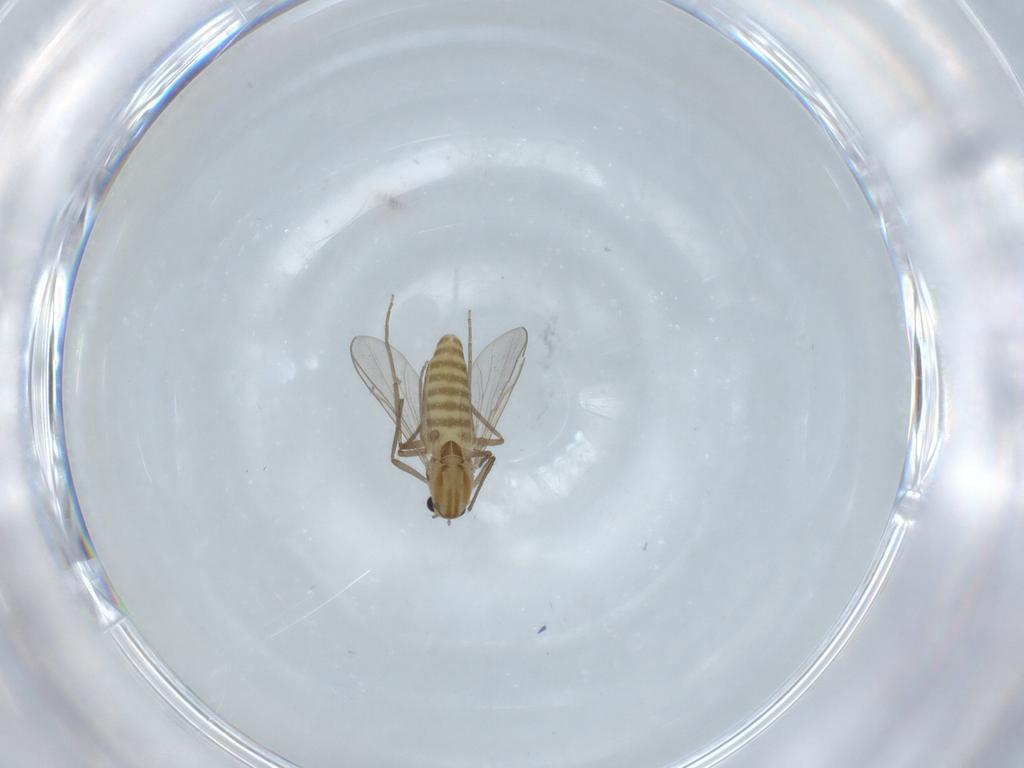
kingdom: Animalia
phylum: Arthropoda
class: Insecta
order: Diptera
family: Chironomidae
